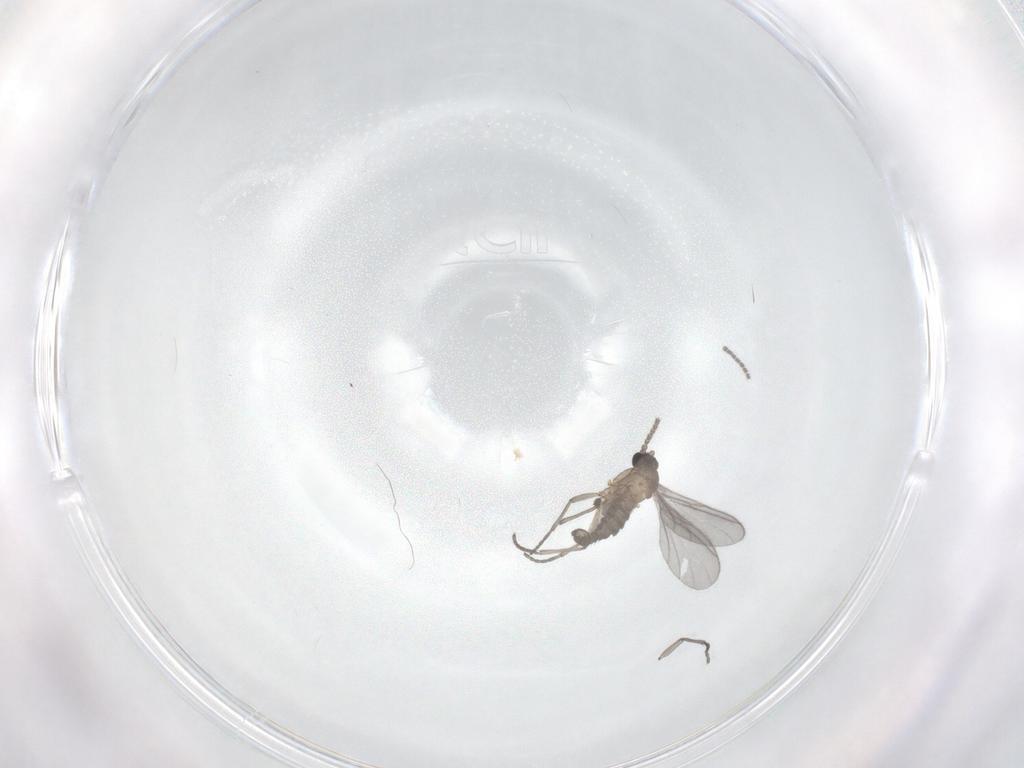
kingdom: Animalia
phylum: Arthropoda
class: Insecta
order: Diptera
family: Sciaridae
